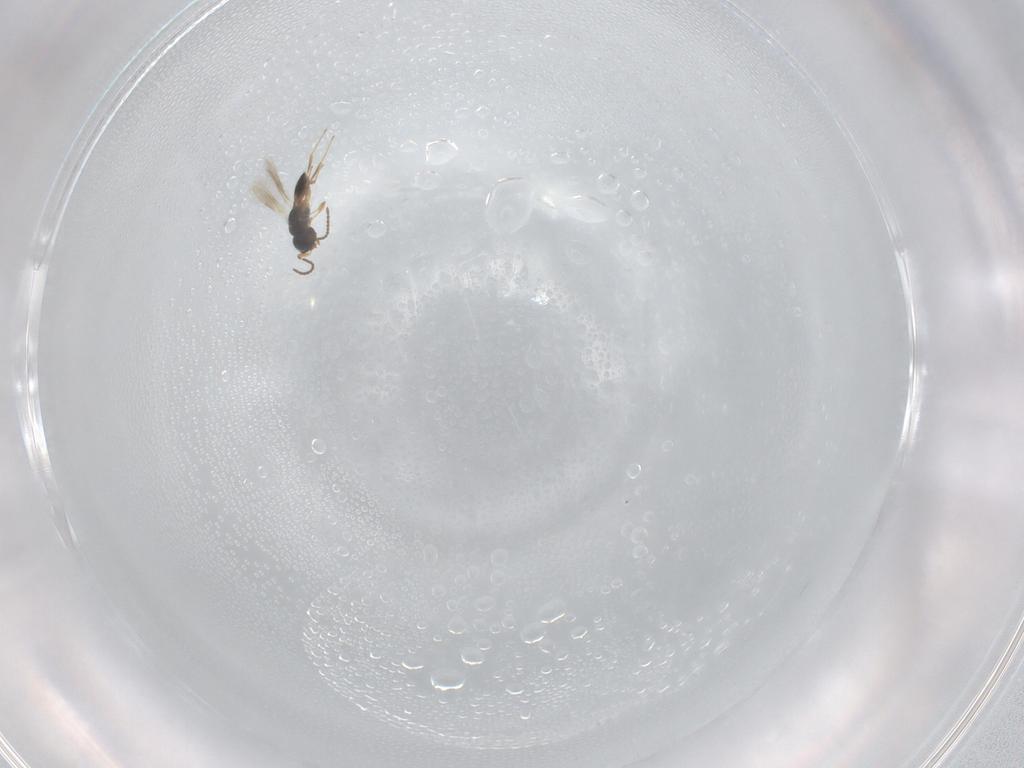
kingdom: Animalia
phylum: Arthropoda
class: Insecta
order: Hymenoptera
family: Scelionidae
